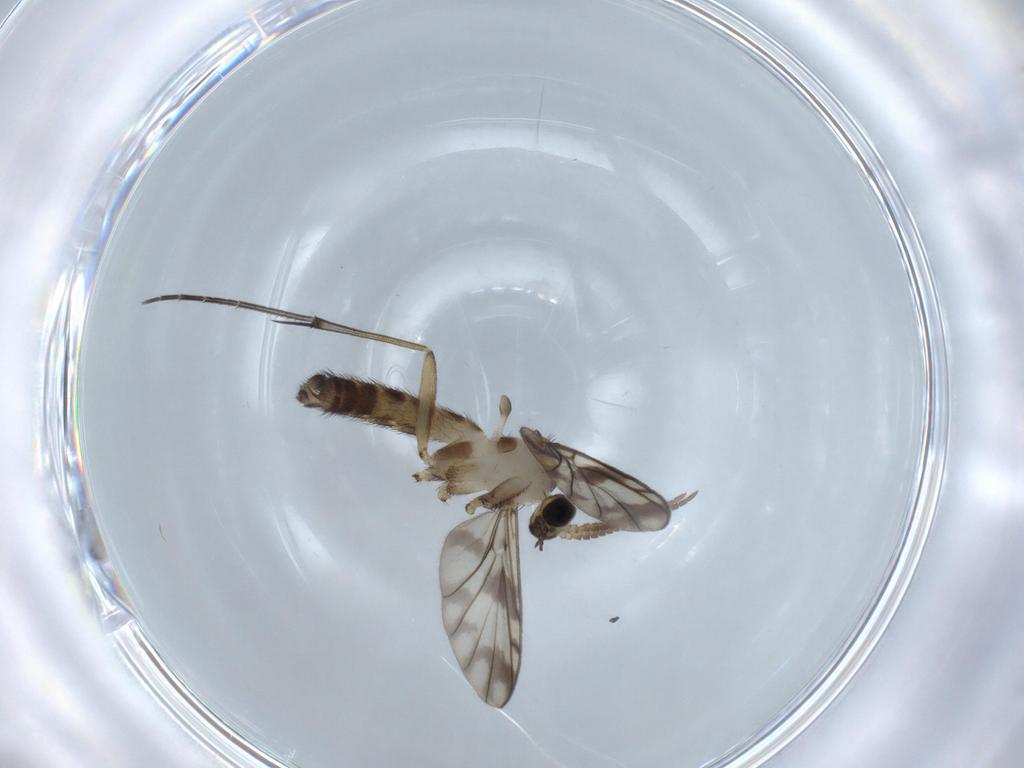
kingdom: Animalia
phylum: Arthropoda
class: Insecta
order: Diptera
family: Cecidomyiidae
